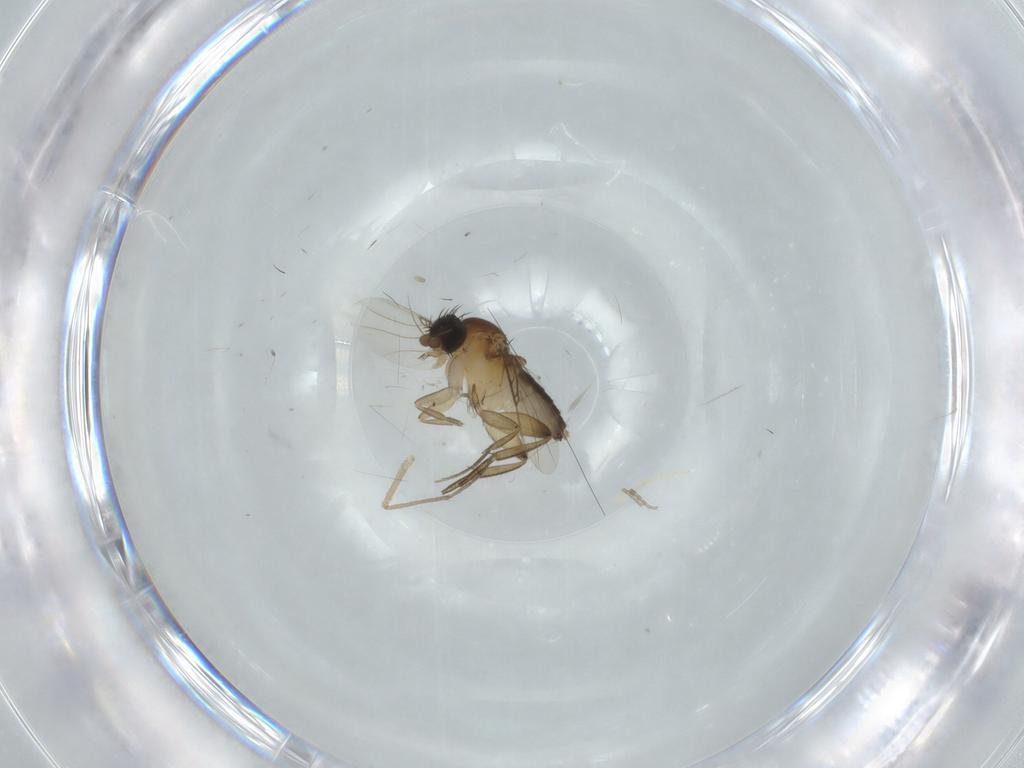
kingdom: Animalia
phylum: Arthropoda
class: Insecta
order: Diptera
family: Phoridae
